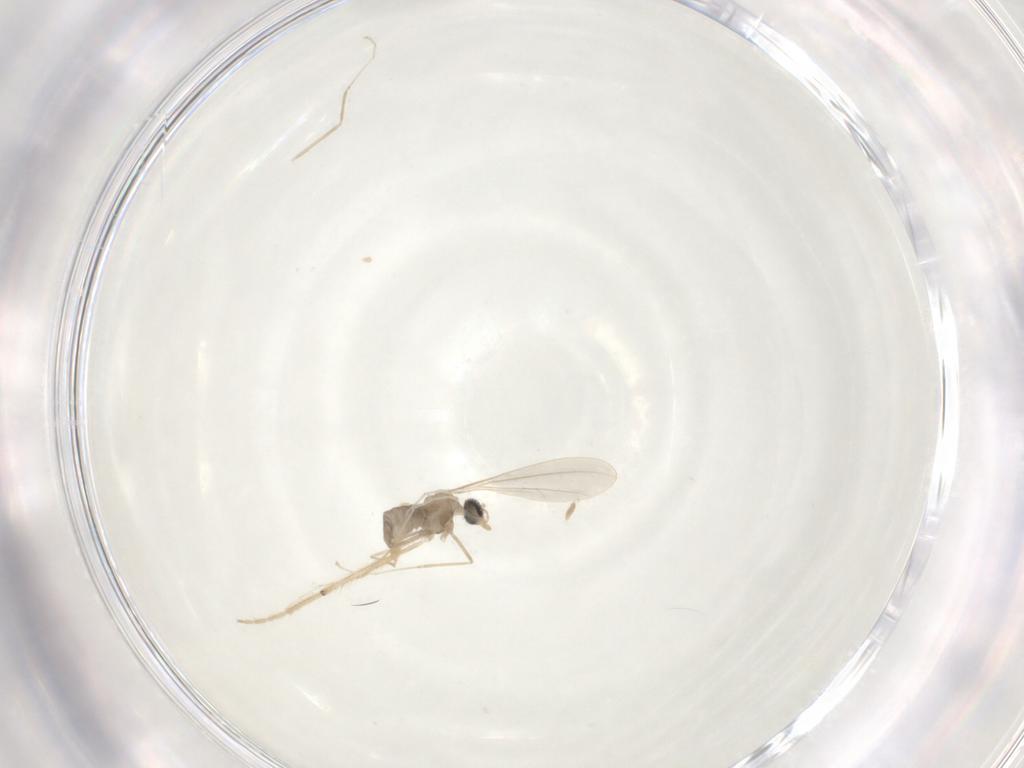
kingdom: Animalia
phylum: Arthropoda
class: Insecta
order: Diptera
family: Cecidomyiidae
